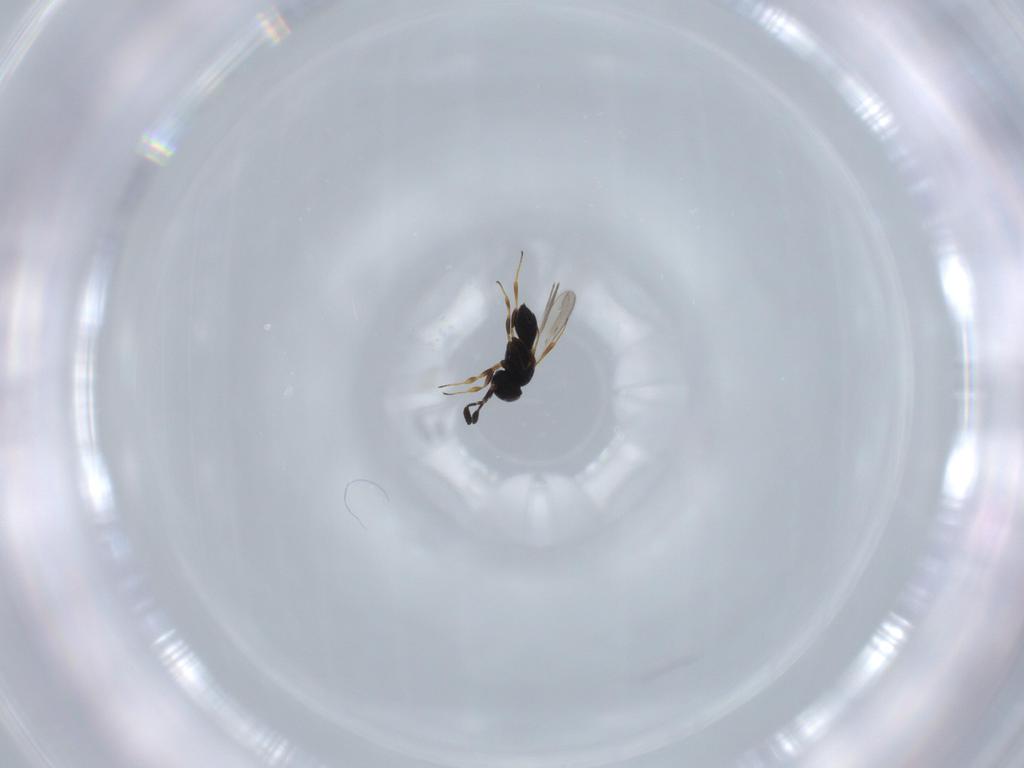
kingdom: Animalia
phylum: Arthropoda
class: Insecta
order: Hymenoptera
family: Scelionidae
